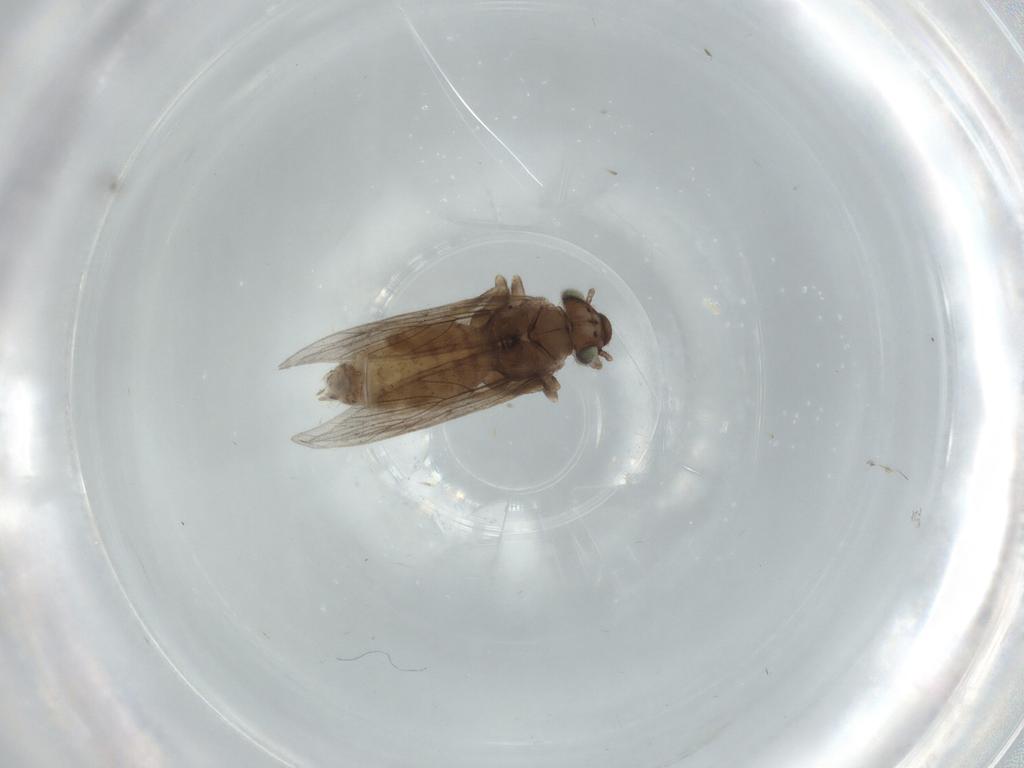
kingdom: Animalia
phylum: Arthropoda
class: Insecta
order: Psocodea
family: Lepidopsocidae
